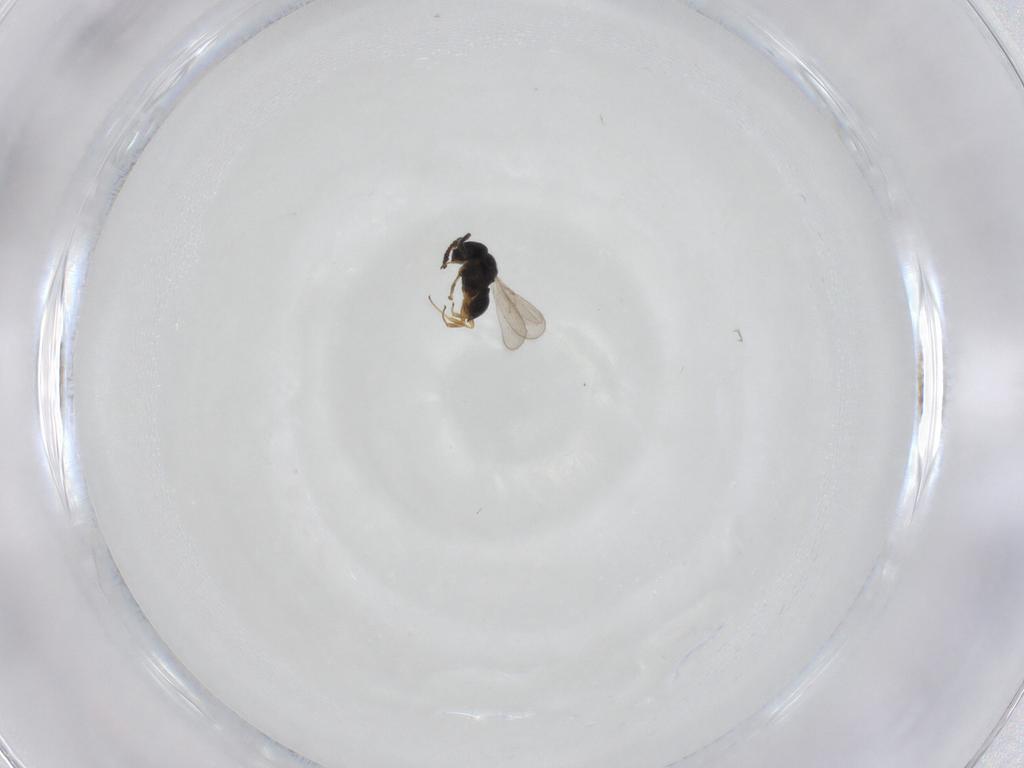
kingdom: Animalia
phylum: Arthropoda
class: Insecta
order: Hymenoptera
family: Scelionidae
